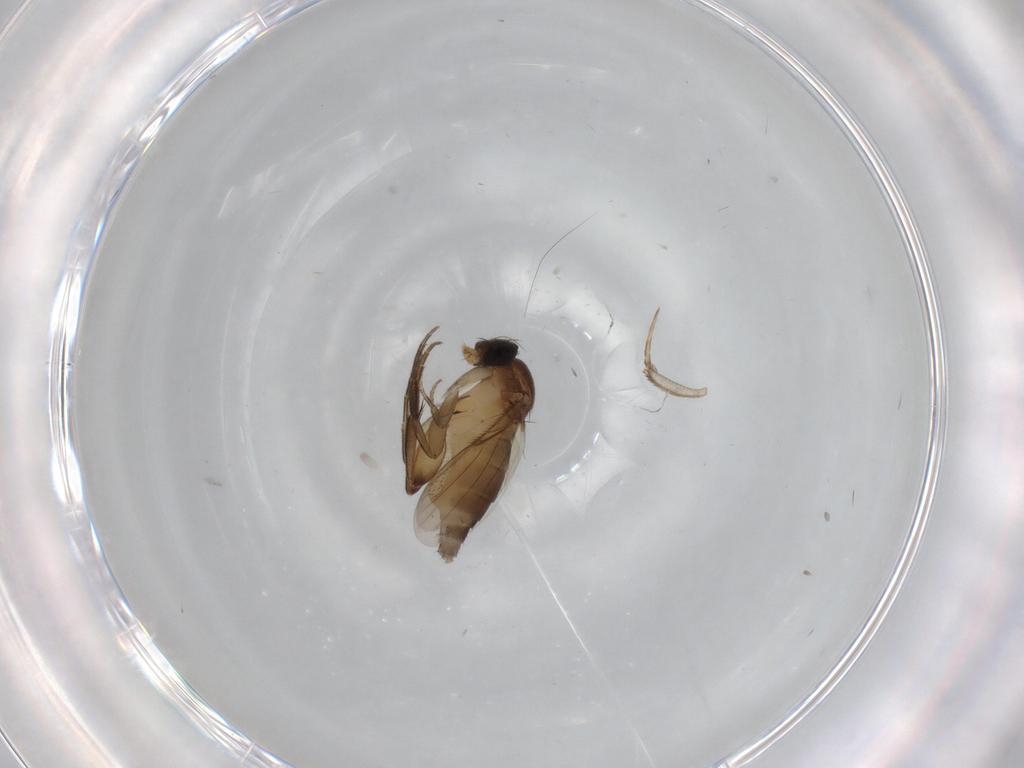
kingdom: Animalia
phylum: Arthropoda
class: Insecta
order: Diptera
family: Phoridae
